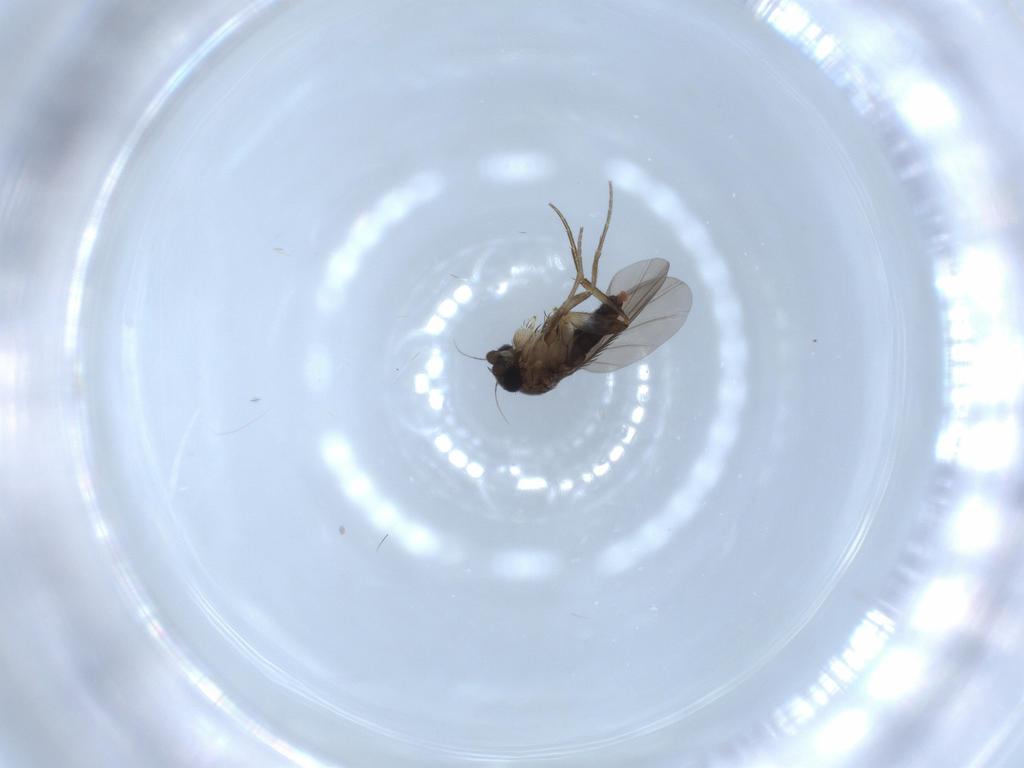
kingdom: Animalia
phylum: Arthropoda
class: Insecta
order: Diptera
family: Phoridae
